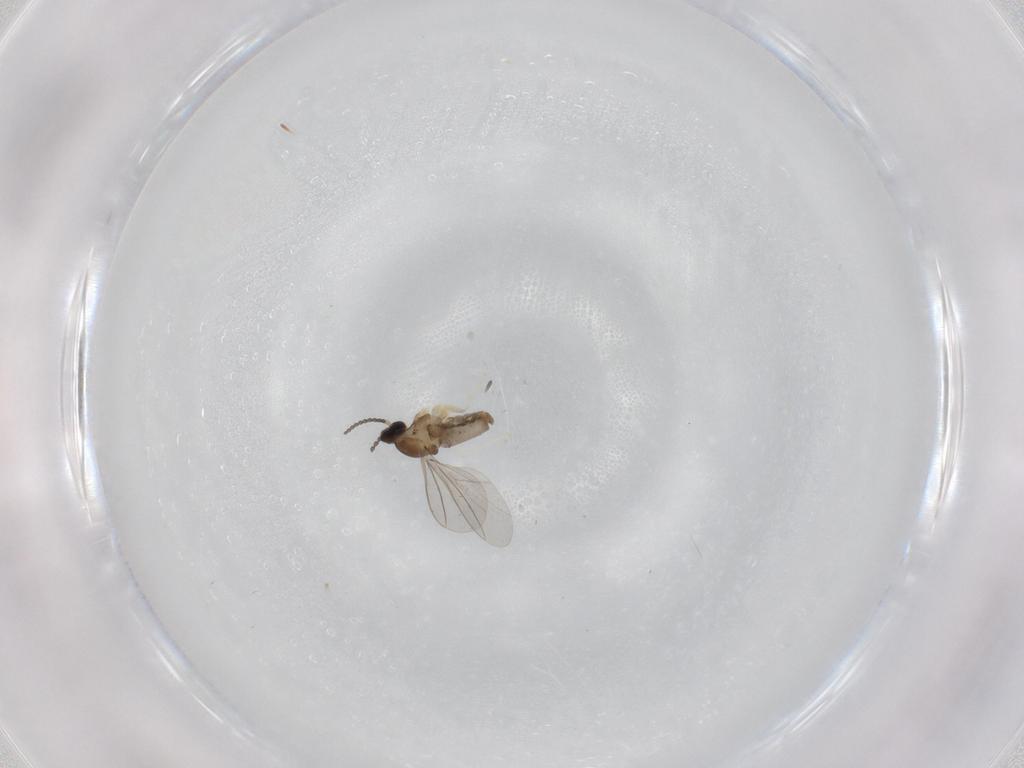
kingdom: Animalia
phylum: Arthropoda
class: Insecta
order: Diptera
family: Cecidomyiidae
